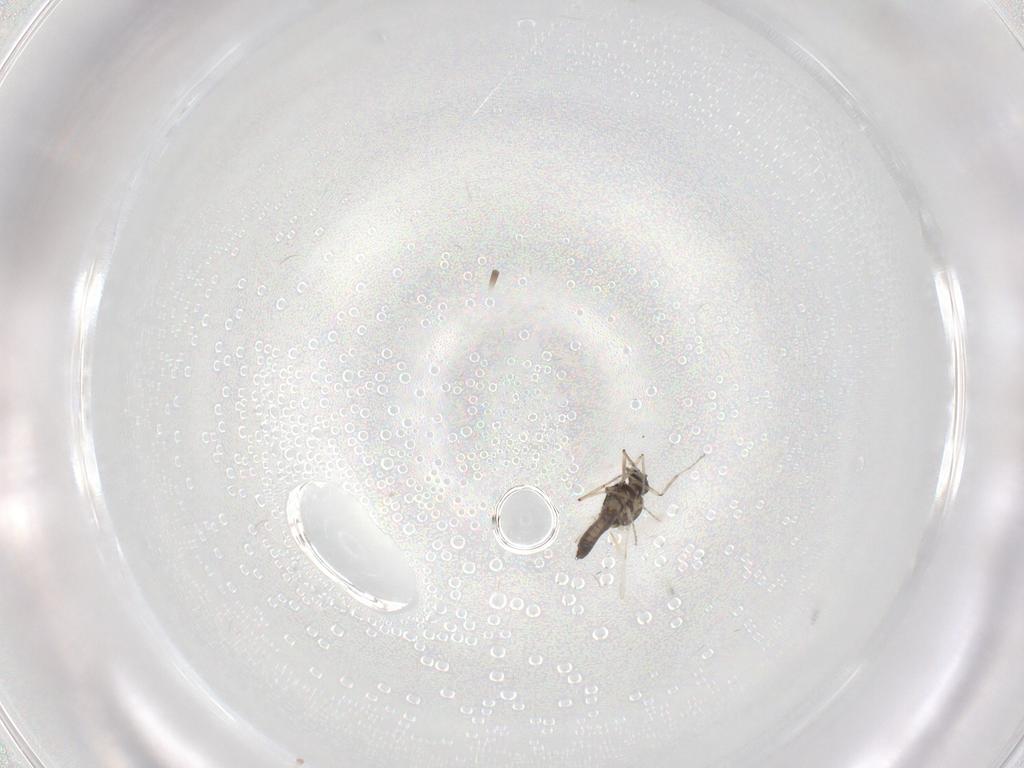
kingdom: Animalia
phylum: Arthropoda
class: Insecta
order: Diptera
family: Ceratopogonidae
